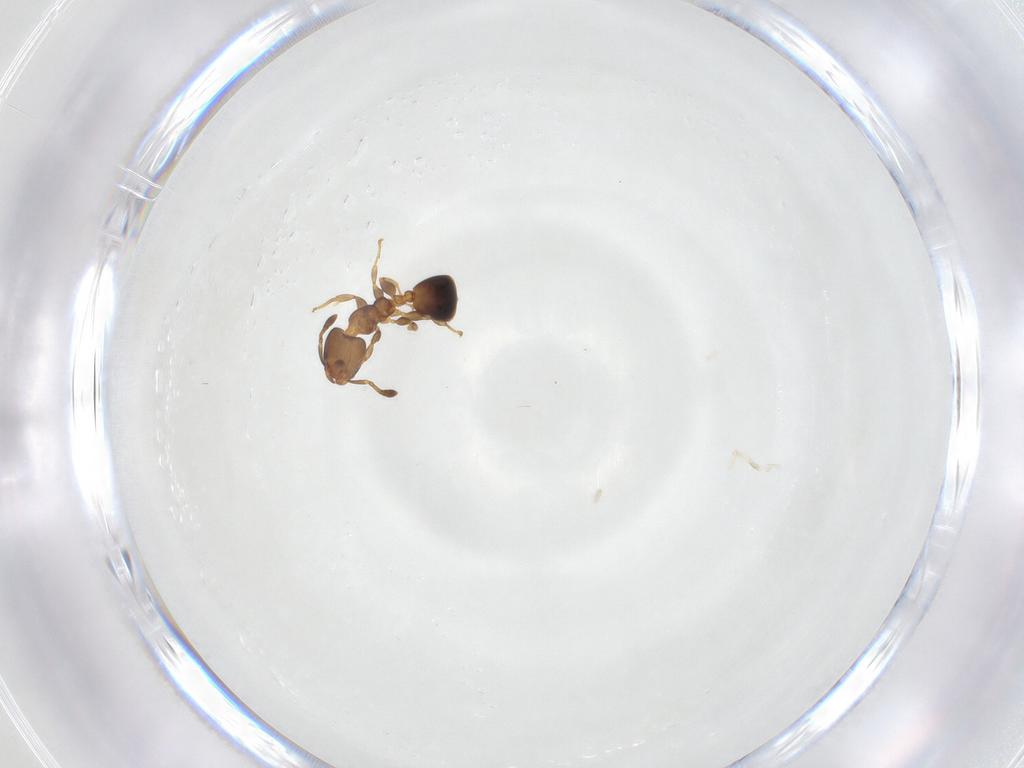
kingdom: Animalia
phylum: Arthropoda
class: Insecta
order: Hymenoptera
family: Formicidae
